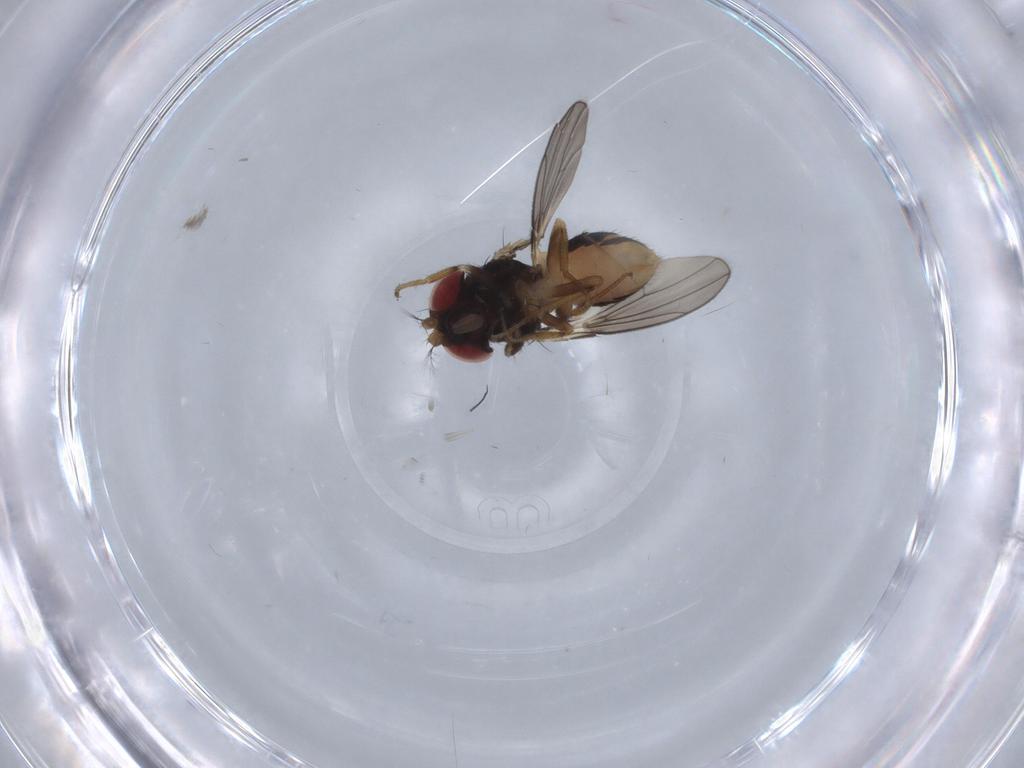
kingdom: Animalia
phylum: Arthropoda
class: Insecta
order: Diptera
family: Drosophilidae
